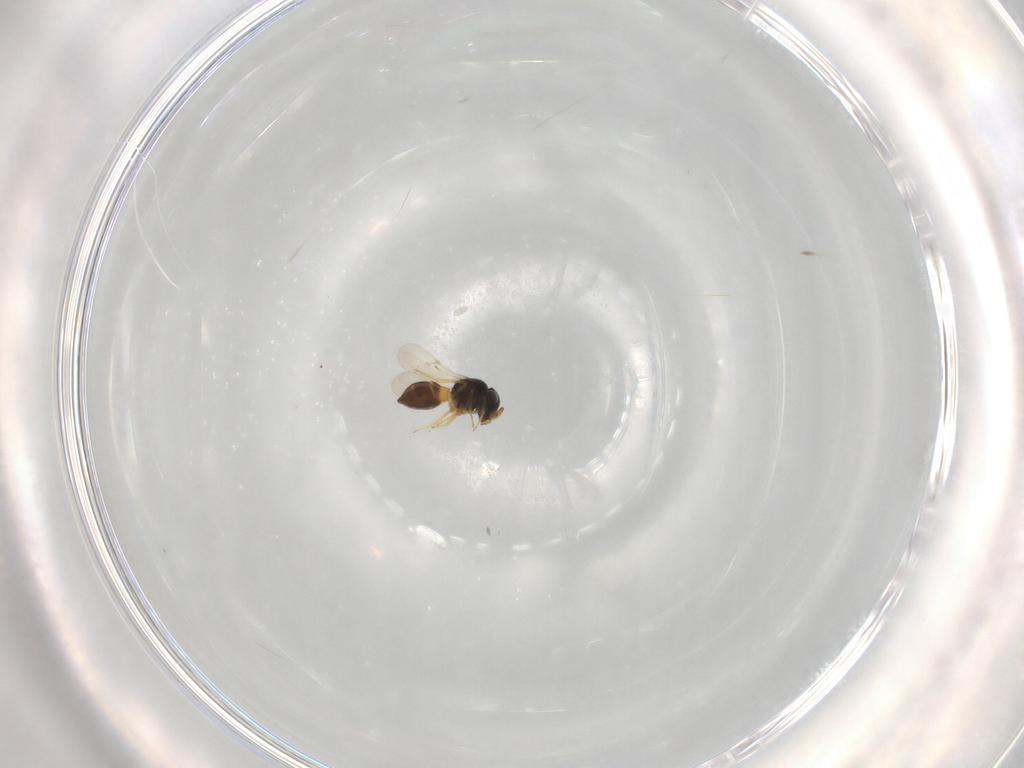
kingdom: Animalia
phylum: Arthropoda
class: Insecta
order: Hymenoptera
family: Scelionidae
